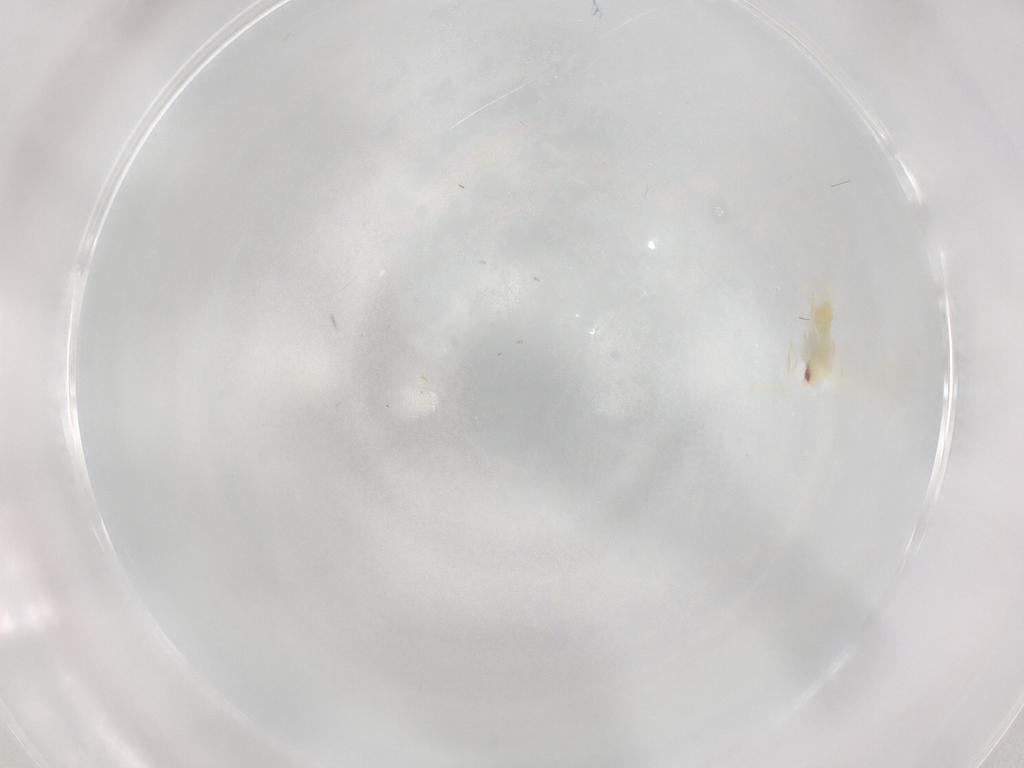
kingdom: Animalia
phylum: Arthropoda
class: Insecta
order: Hemiptera
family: Aleyrodidae
